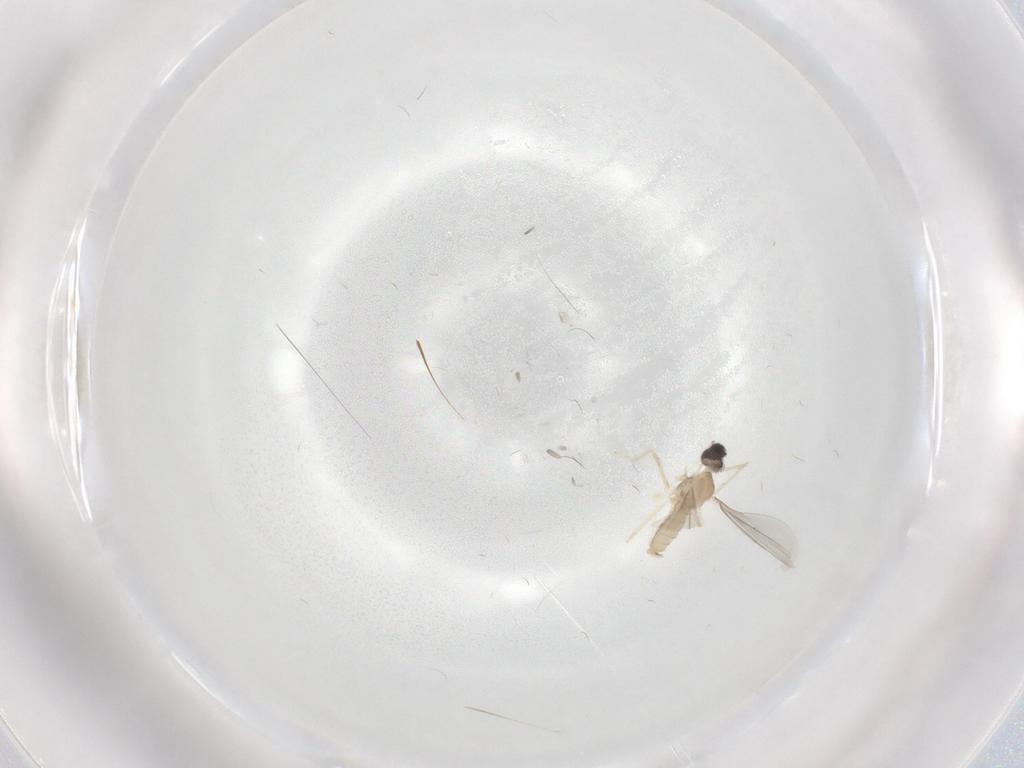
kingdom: Animalia
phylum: Arthropoda
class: Insecta
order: Diptera
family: Cecidomyiidae
